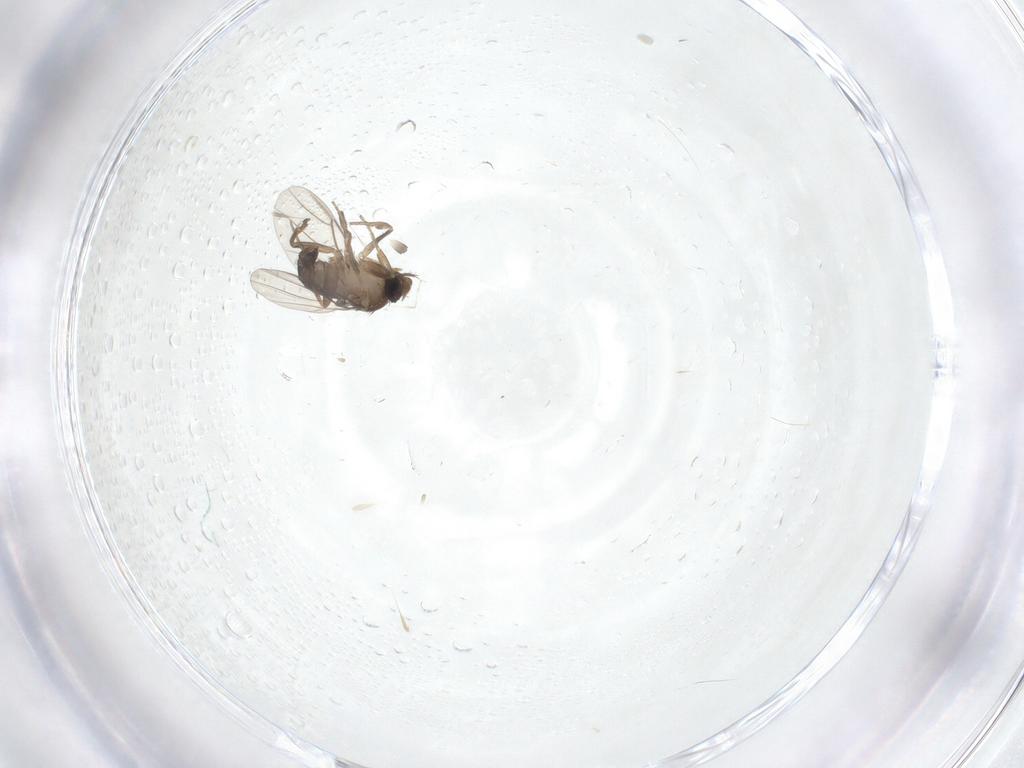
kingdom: Animalia
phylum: Arthropoda
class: Insecta
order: Diptera
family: Phoridae
